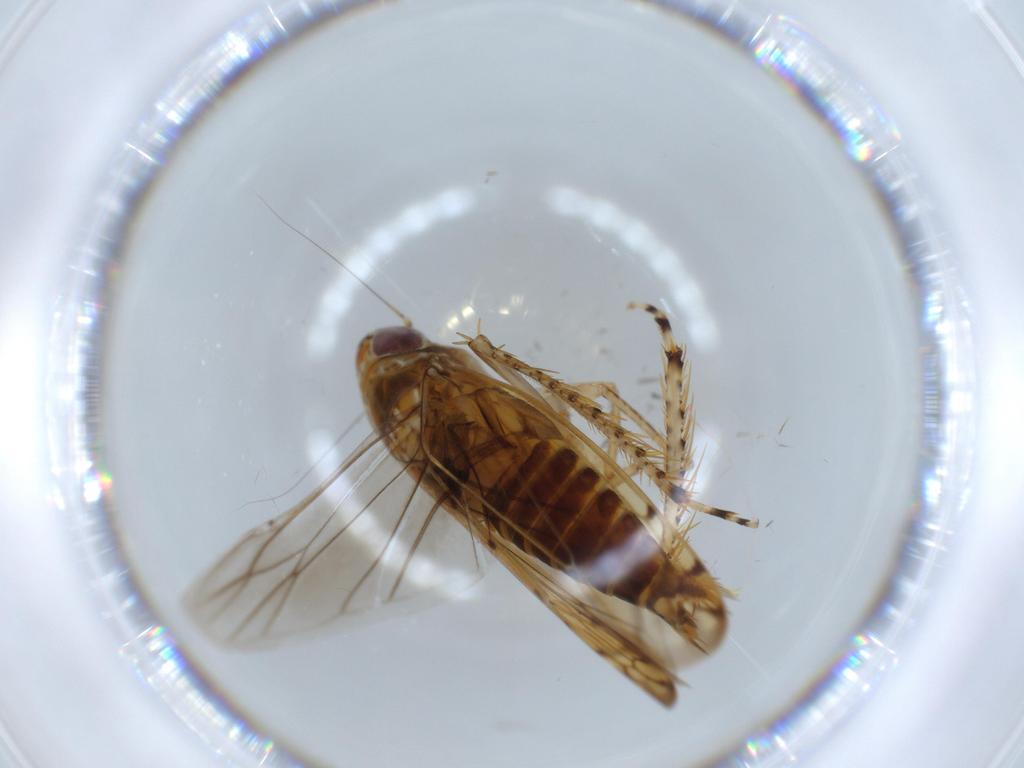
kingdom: Animalia
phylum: Arthropoda
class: Insecta
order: Hemiptera
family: Cicadellidae
